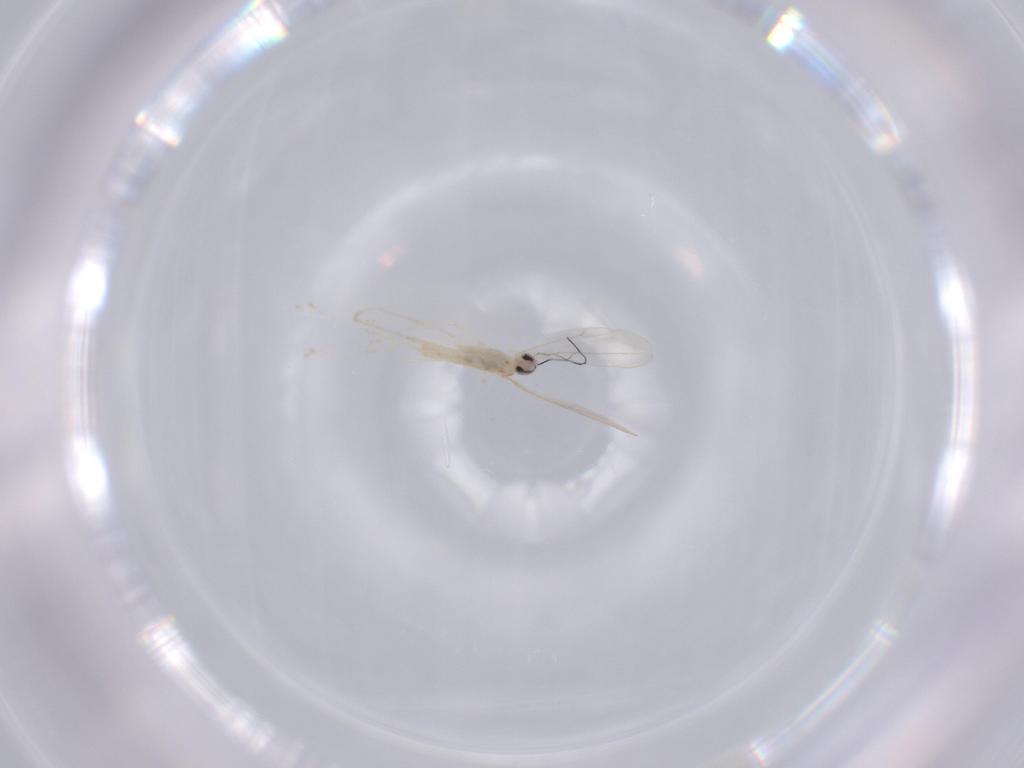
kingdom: Animalia
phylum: Arthropoda
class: Insecta
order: Diptera
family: Cecidomyiidae
